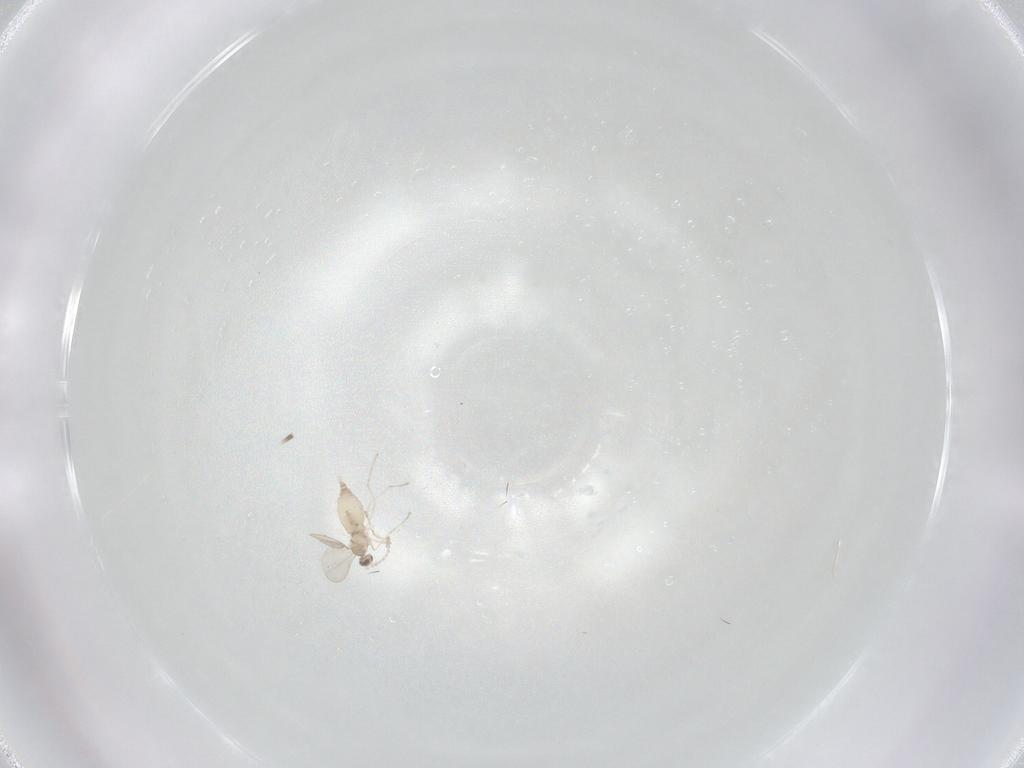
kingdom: Animalia
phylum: Arthropoda
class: Insecta
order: Diptera
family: Cecidomyiidae
